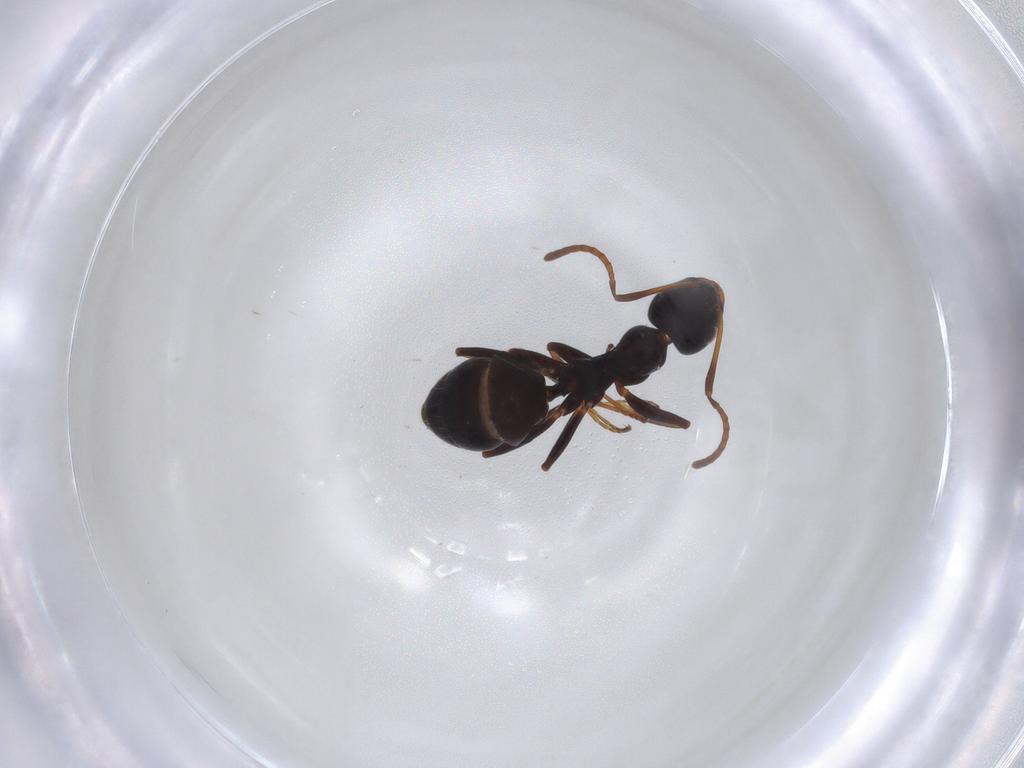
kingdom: Animalia
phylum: Arthropoda
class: Insecta
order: Hymenoptera
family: Formicidae
